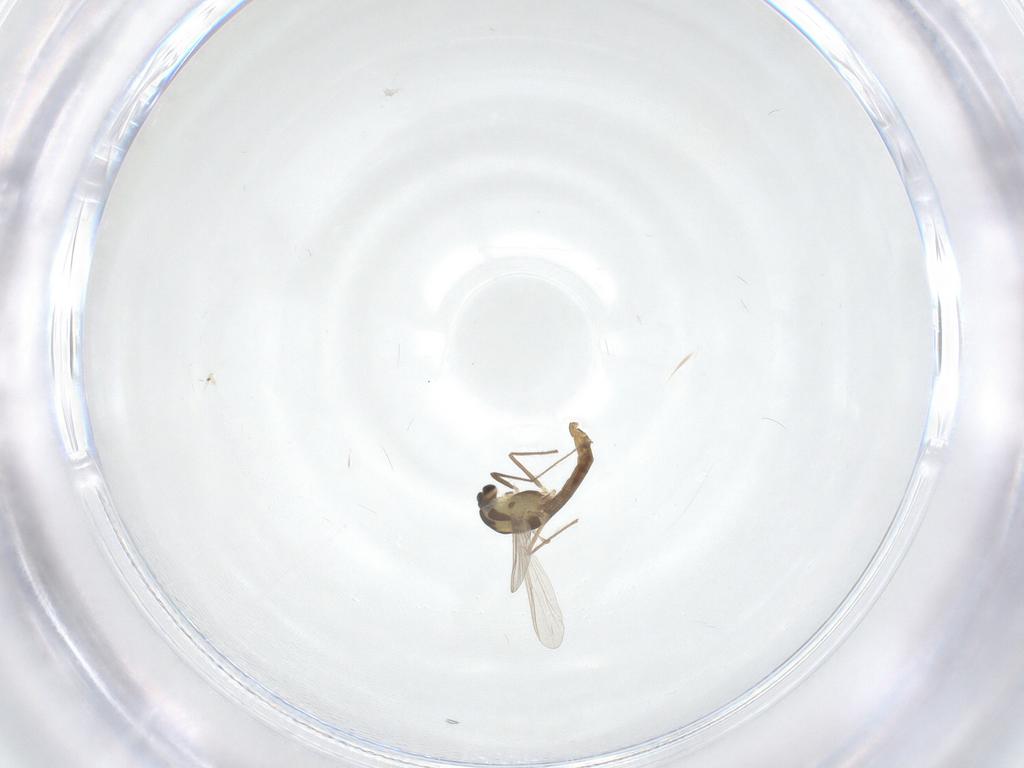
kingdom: Animalia
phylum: Arthropoda
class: Insecta
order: Diptera
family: Chironomidae
